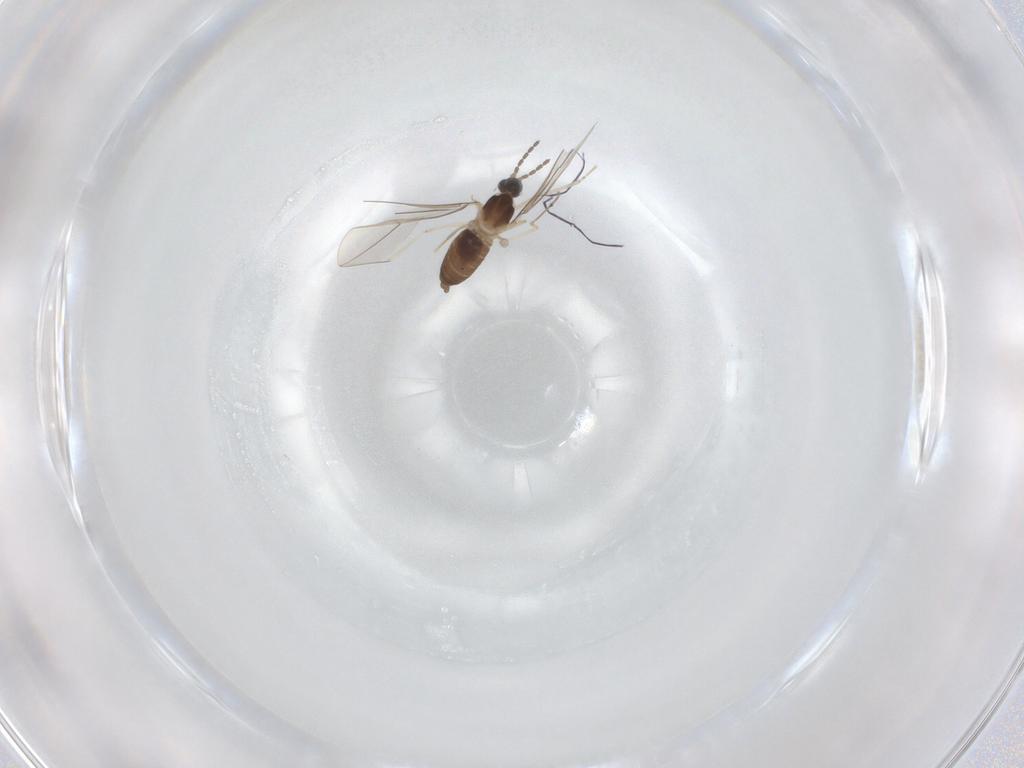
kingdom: Animalia
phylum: Arthropoda
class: Insecta
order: Diptera
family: Cecidomyiidae
